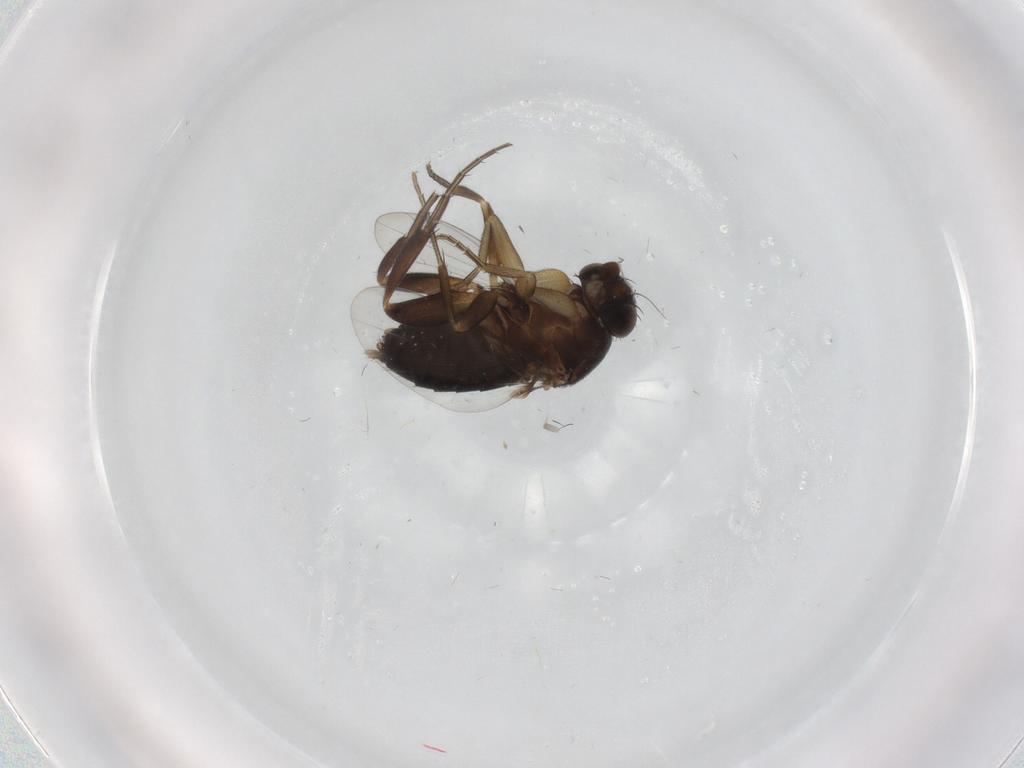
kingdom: Animalia
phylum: Arthropoda
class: Insecta
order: Diptera
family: Phoridae
